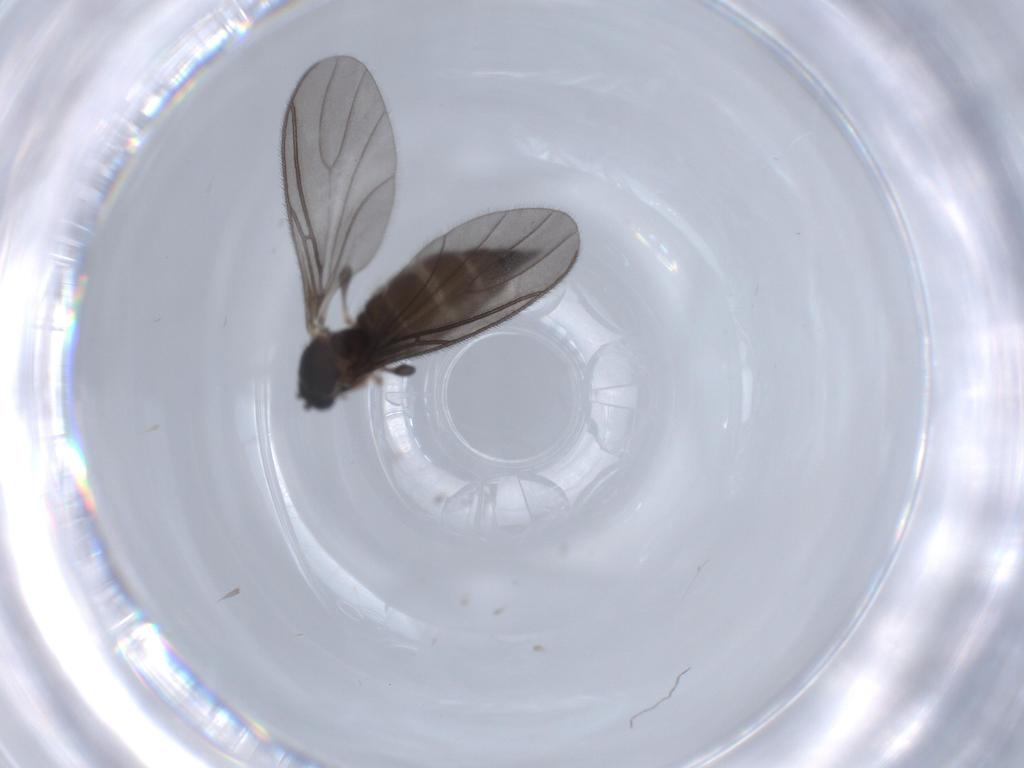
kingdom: Animalia
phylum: Arthropoda
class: Insecta
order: Diptera
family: Sciaridae
